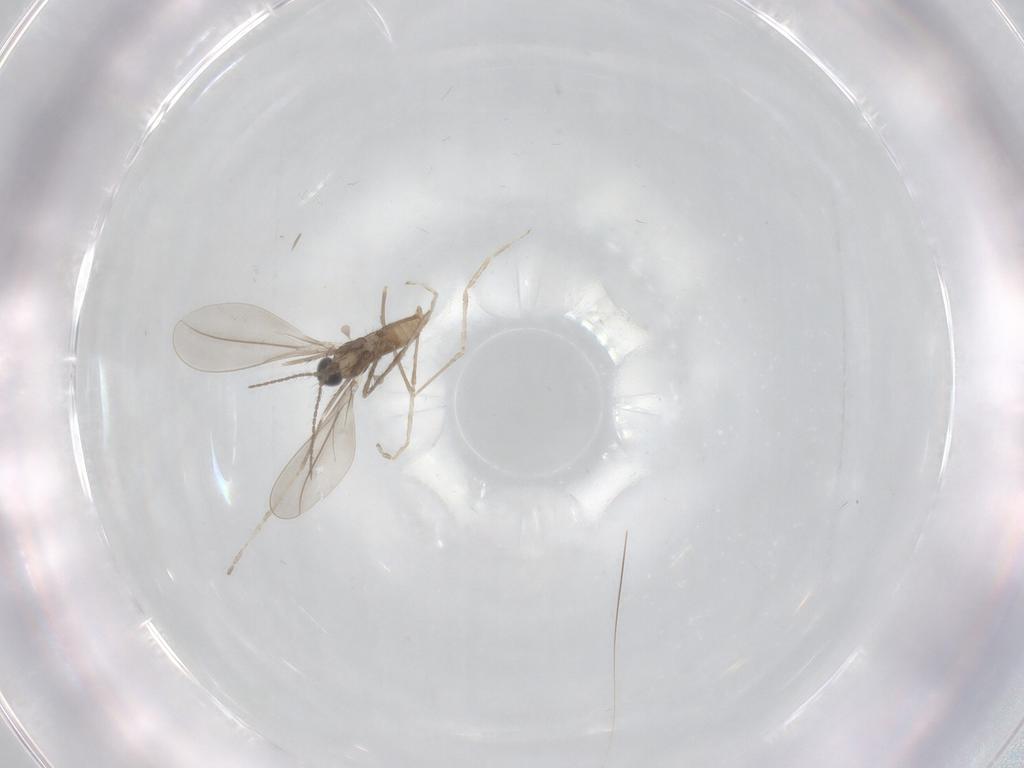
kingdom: Animalia
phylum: Arthropoda
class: Insecta
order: Diptera
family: Cecidomyiidae
